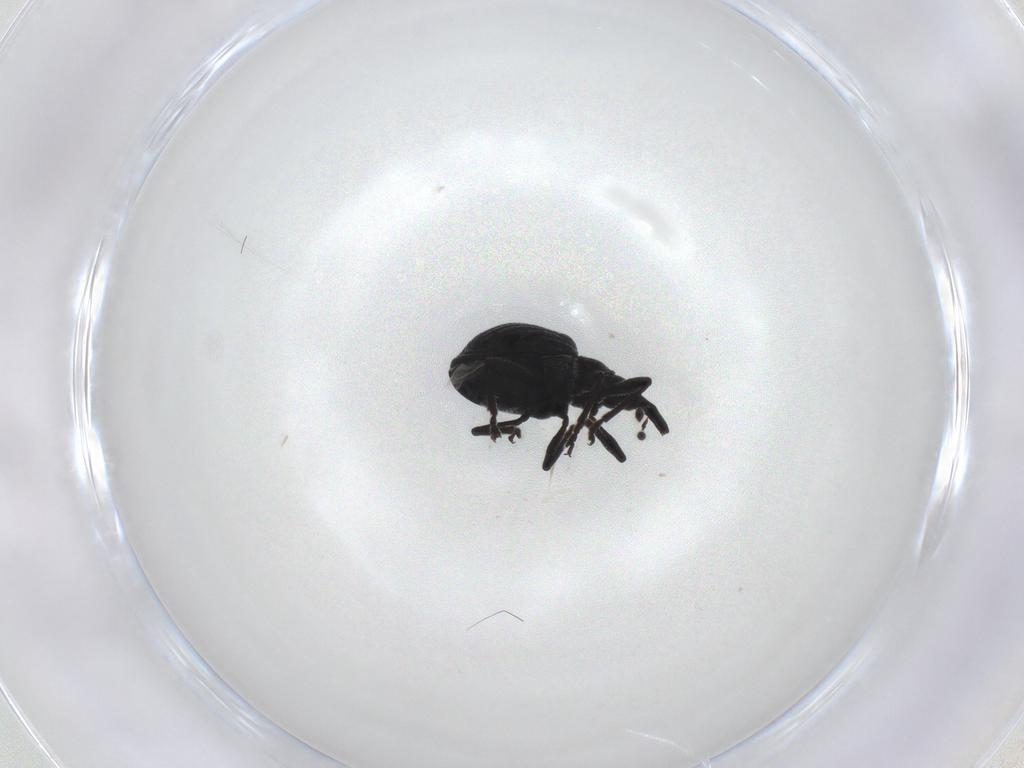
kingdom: Animalia
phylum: Arthropoda
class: Insecta
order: Coleoptera
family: Brentidae
